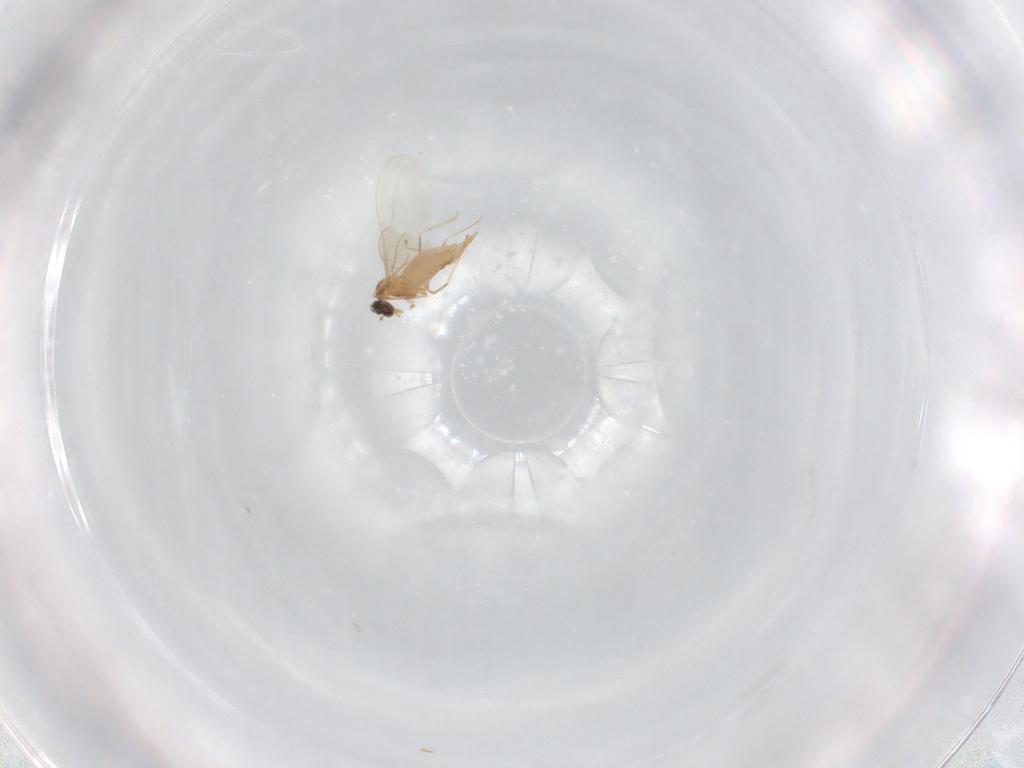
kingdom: Animalia
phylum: Arthropoda
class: Insecta
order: Diptera
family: Cecidomyiidae
